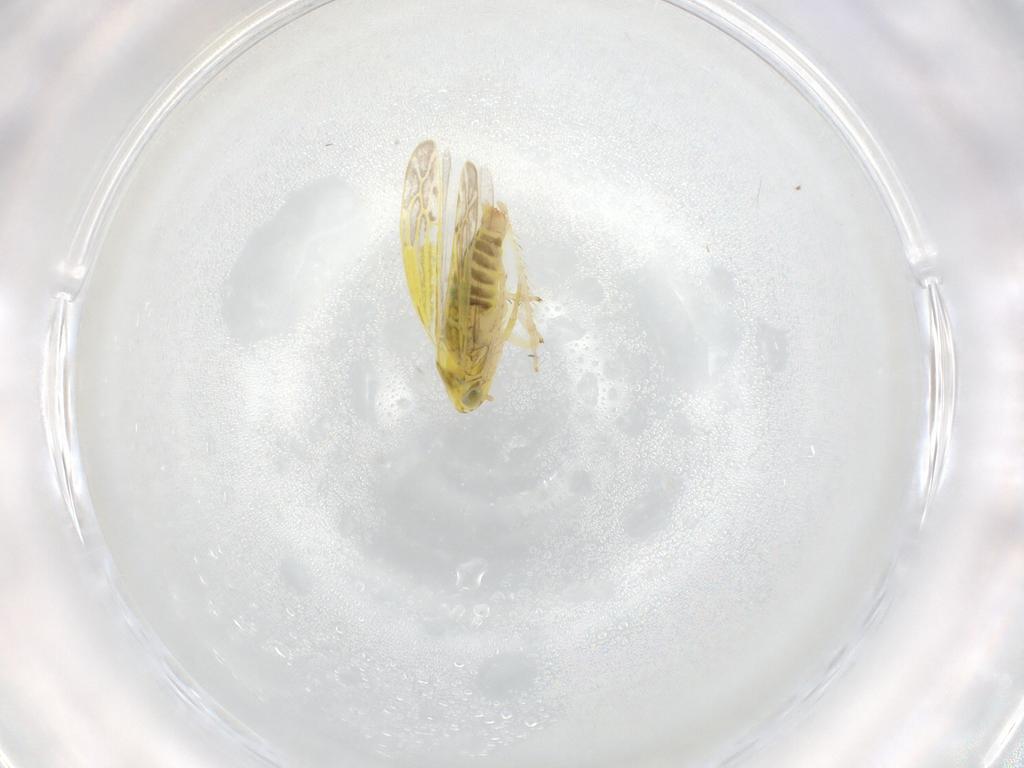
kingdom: Animalia
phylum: Arthropoda
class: Insecta
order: Hemiptera
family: Cicadellidae
